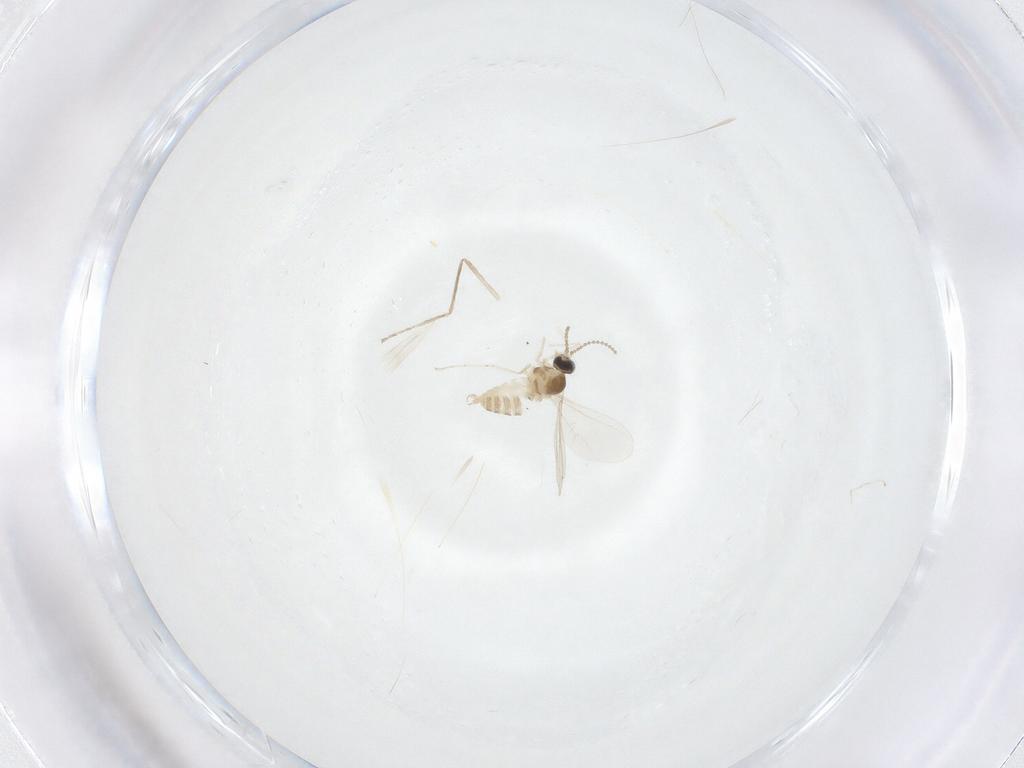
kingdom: Animalia
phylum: Arthropoda
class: Insecta
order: Diptera
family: Cecidomyiidae
